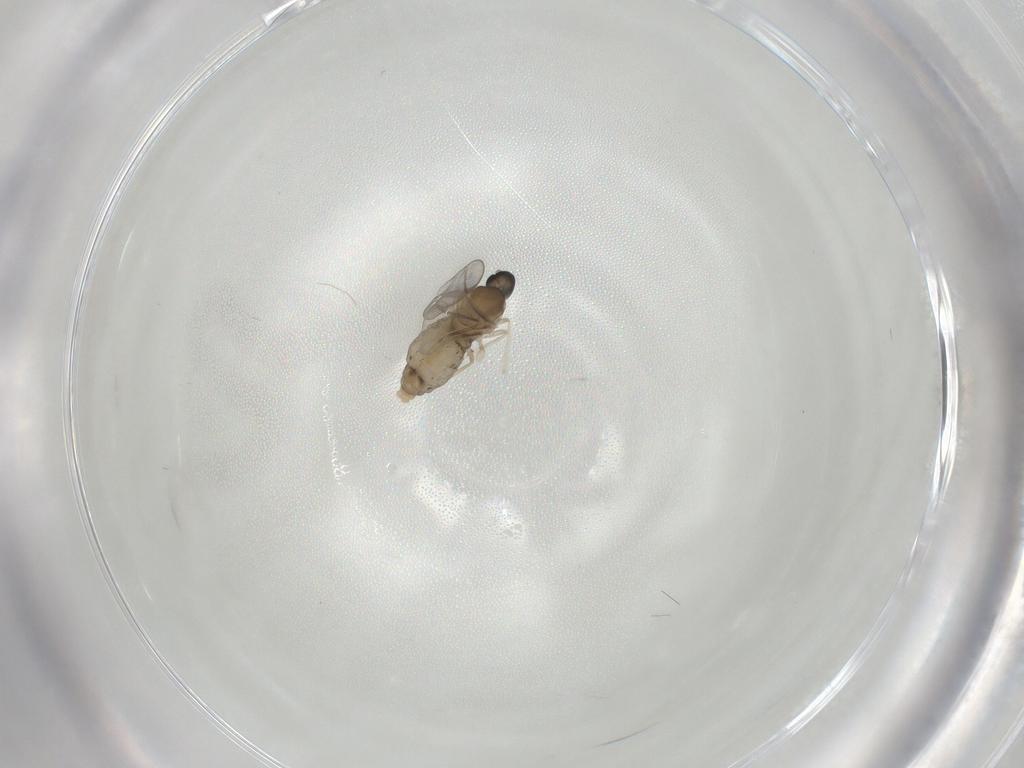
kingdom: Animalia
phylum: Arthropoda
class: Insecta
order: Diptera
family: Cecidomyiidae
